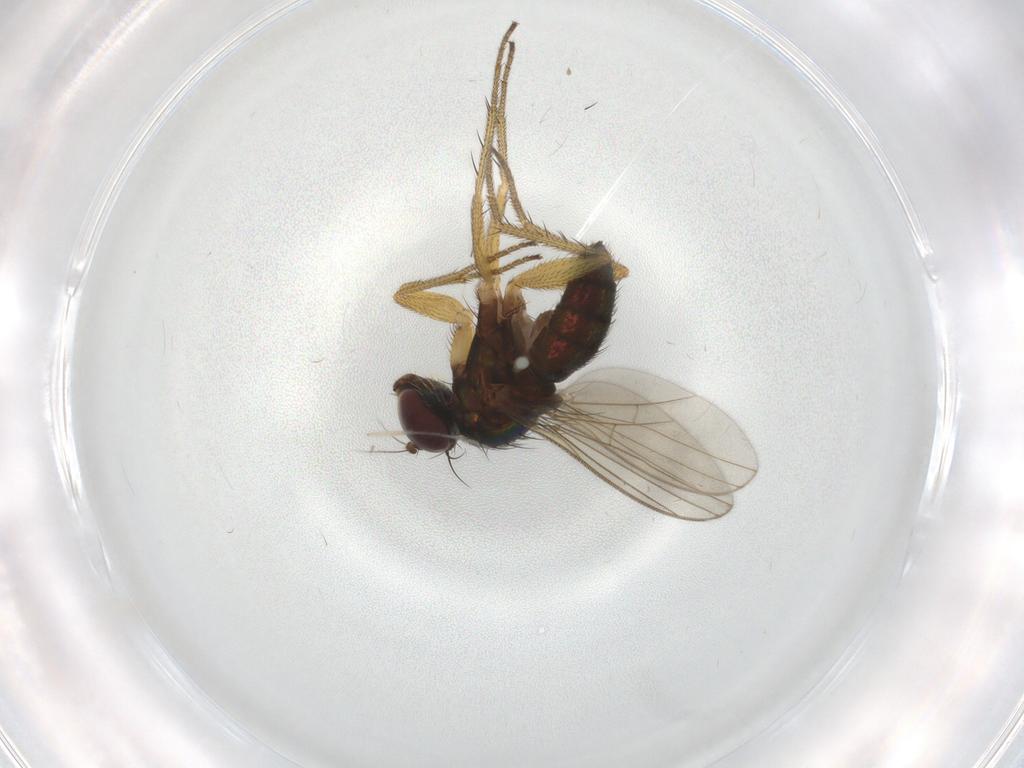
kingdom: Animalia
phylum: Arthropoda
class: Insecta
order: Diptera
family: Dolichopodidae
